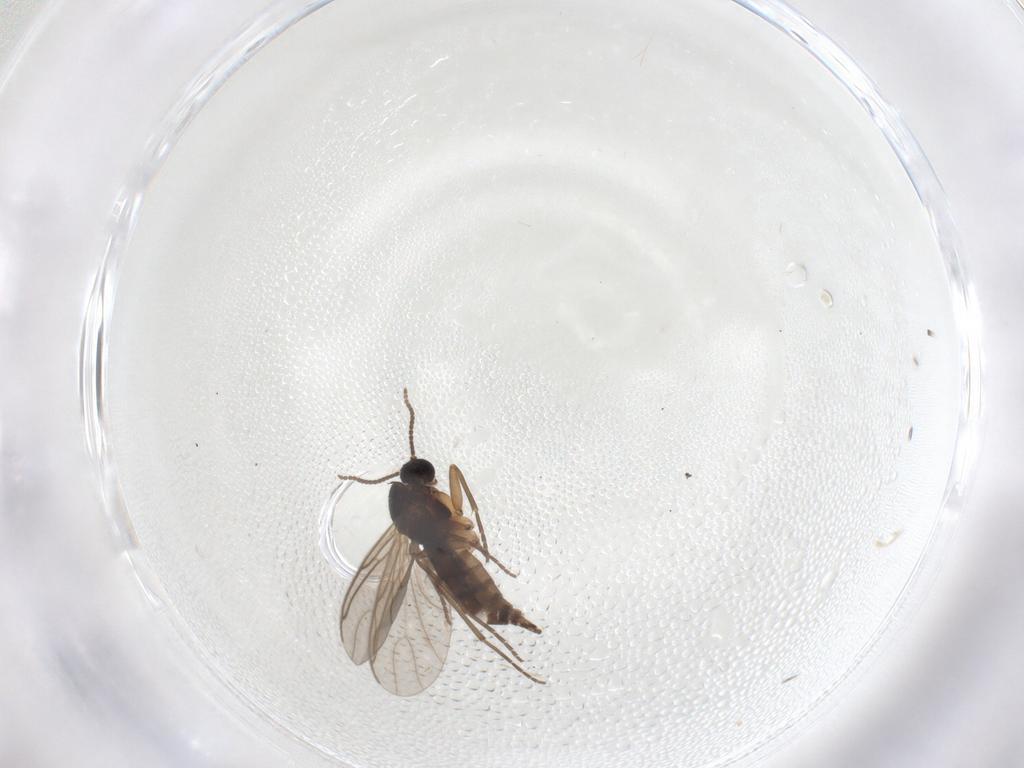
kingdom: Animalia
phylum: Arthropoda
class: Insecta
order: Diptera
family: Sciaridae
